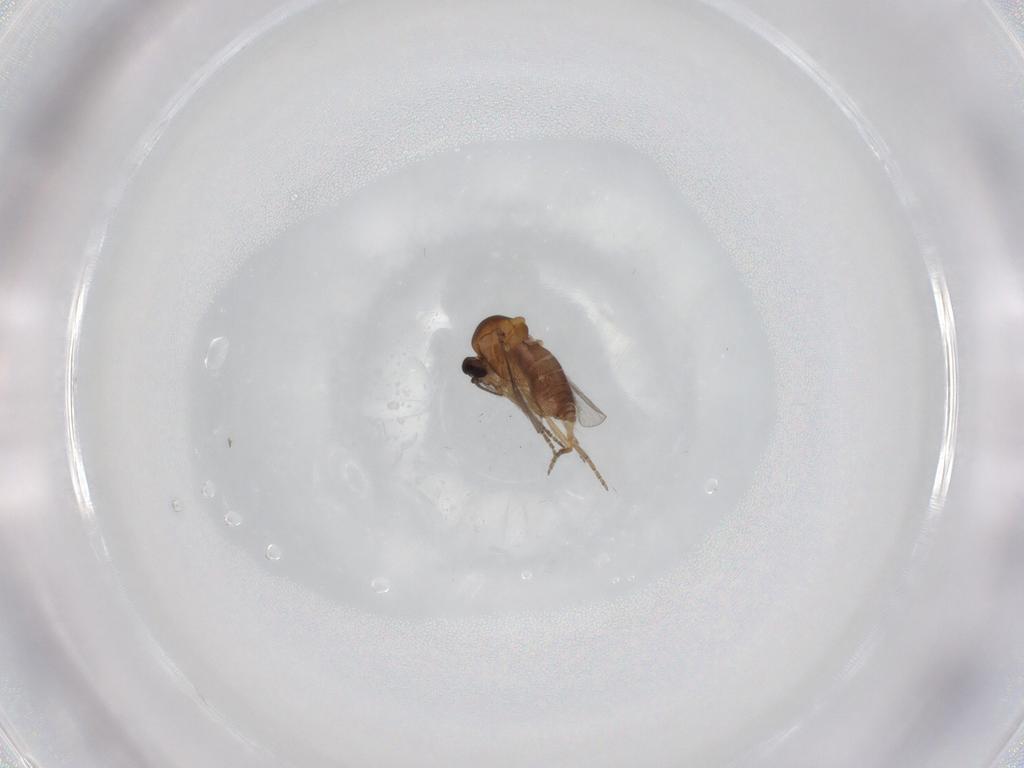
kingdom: Animalia
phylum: Arthropoda
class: Insecta
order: Diptera
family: Ceratopogonidae
